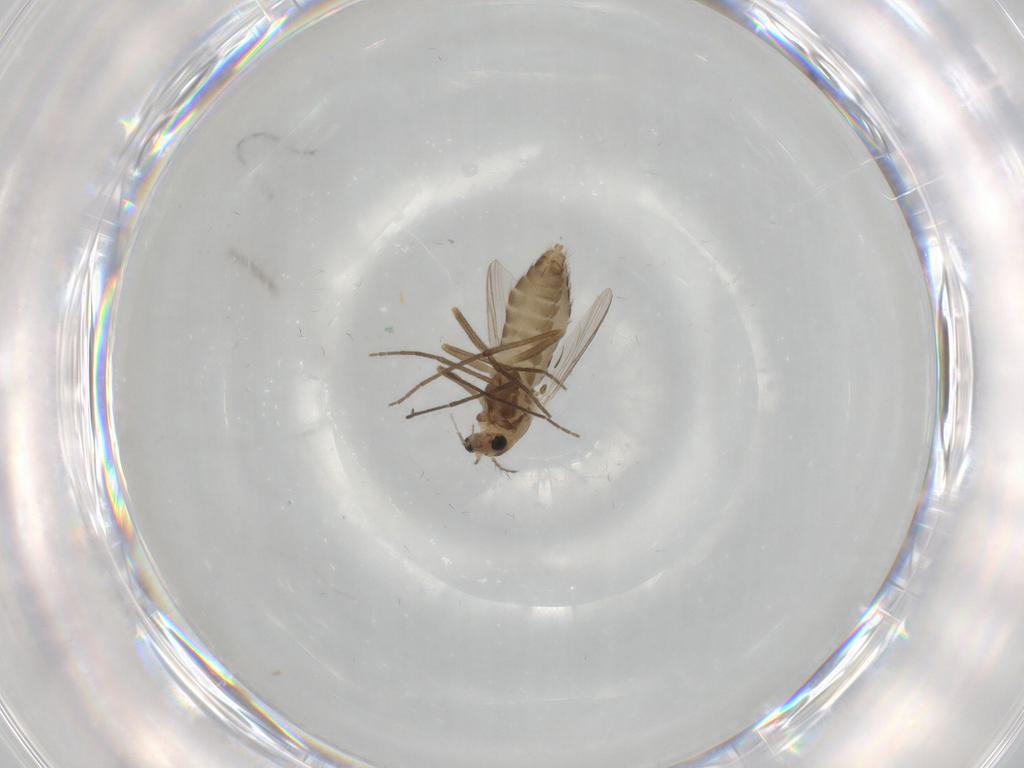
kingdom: Animalia
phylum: Arthropoda
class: Insecta
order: Diptera
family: Chironomidae
